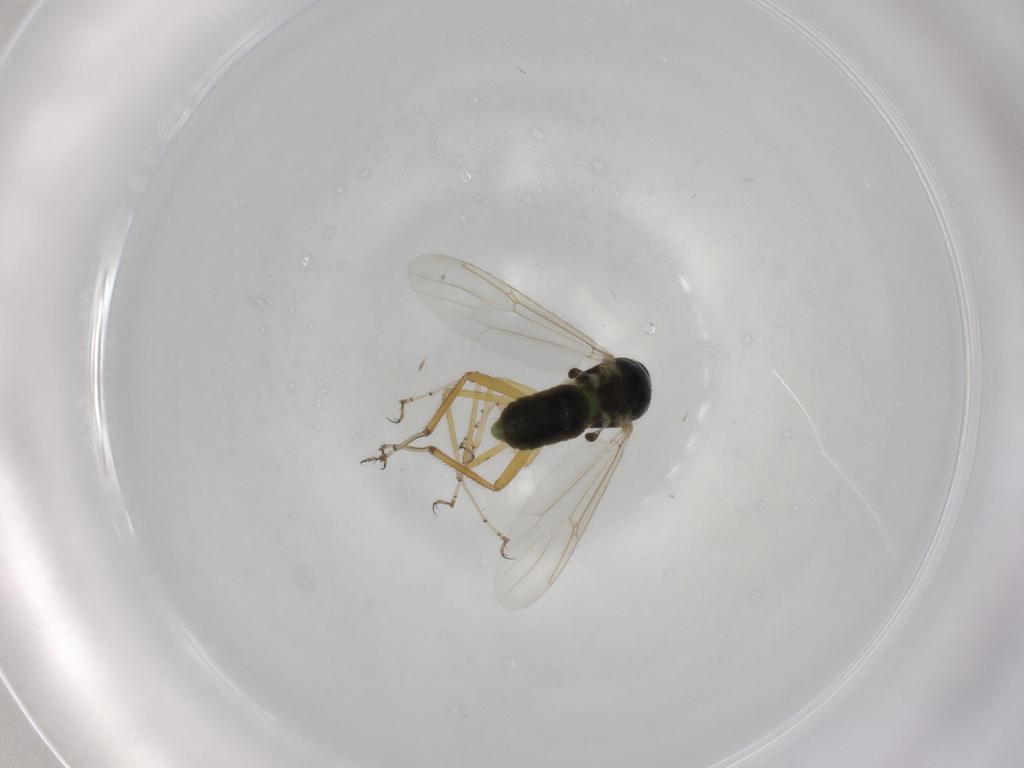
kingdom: Animalia
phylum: Arthropoda
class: Insecta
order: Diptera
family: Ceratopogonidae
